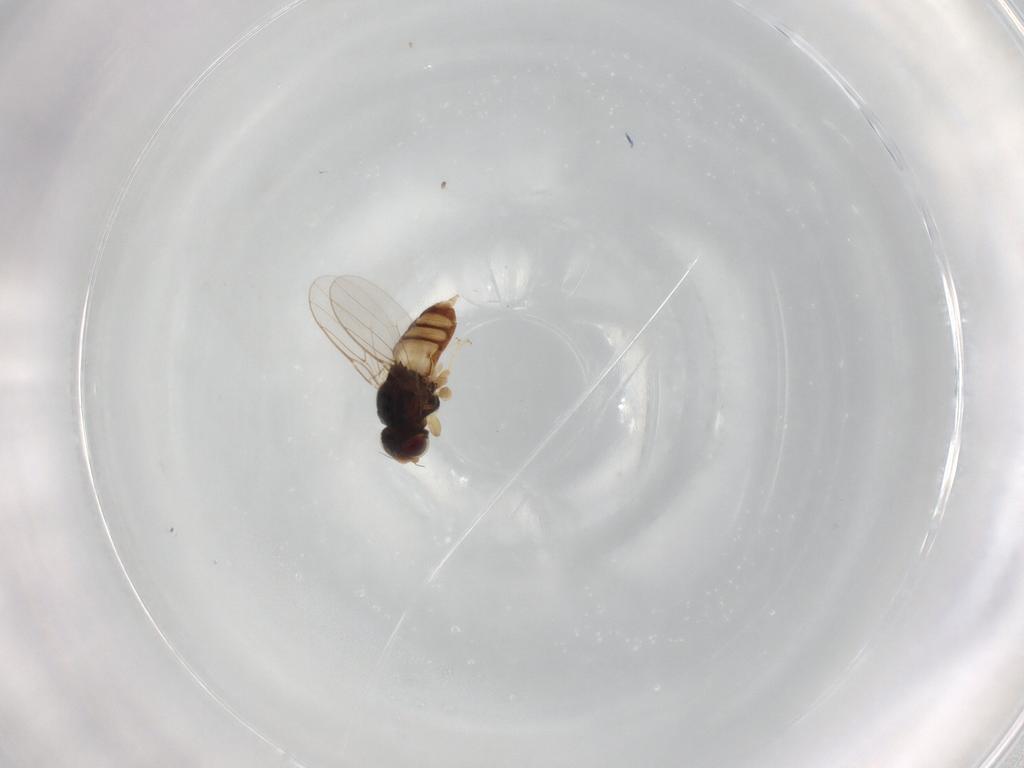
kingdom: Animalia
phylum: Arthropoda
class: Insecta
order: Diptera
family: Chloropidae
